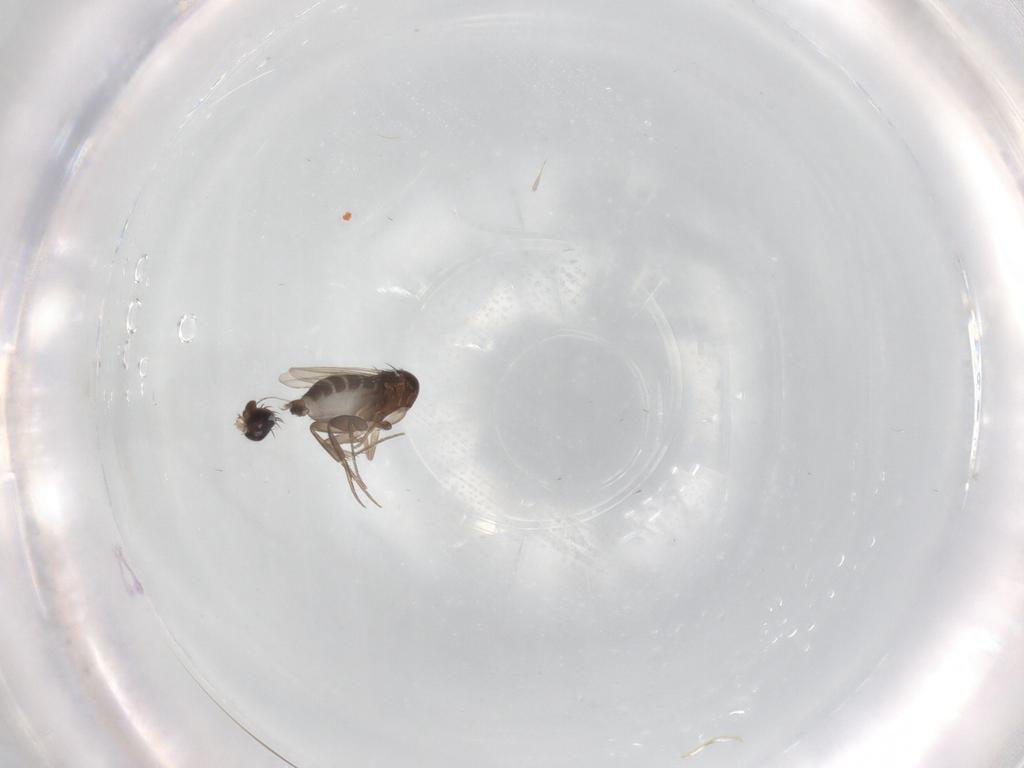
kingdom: Animalia
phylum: Arthropoda
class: Insecta
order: Diptera
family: Phoridae
